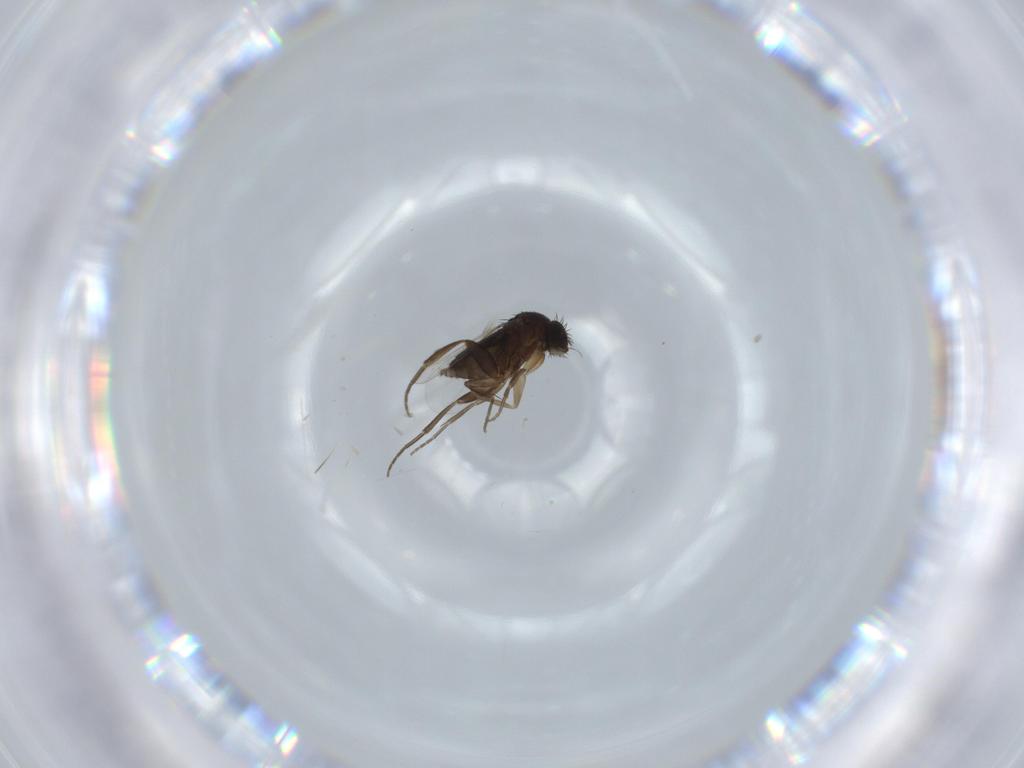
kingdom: Animalia
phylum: Arthropoda
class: Insecta
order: Diptera
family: Phoridae
